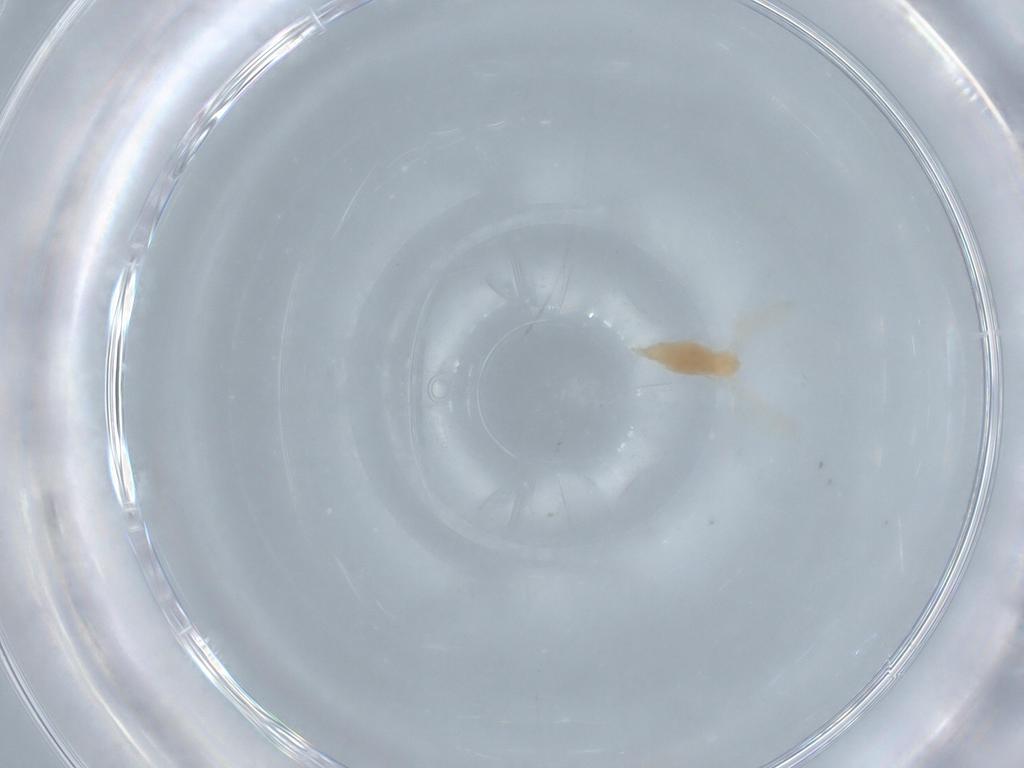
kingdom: Animalia
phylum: Arthropoda
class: Insecta
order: Diptera
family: Cecidomyiidae
